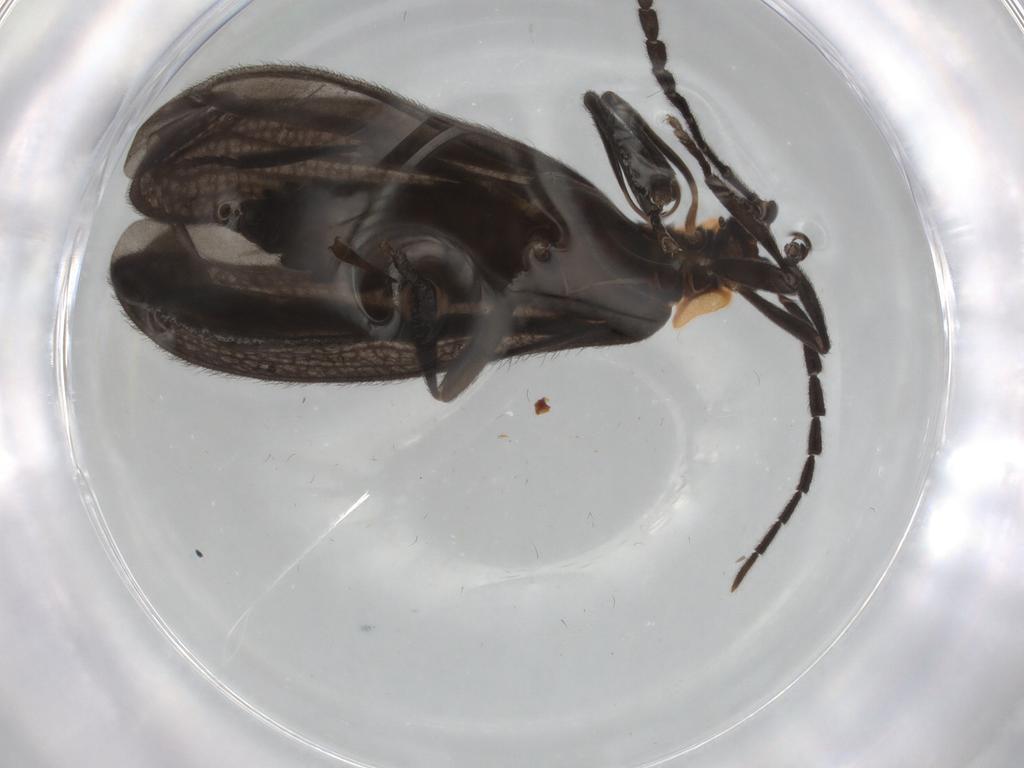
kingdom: Animalia
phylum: Arthropoda
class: Insecta
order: Coleoptera
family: Lycidae
